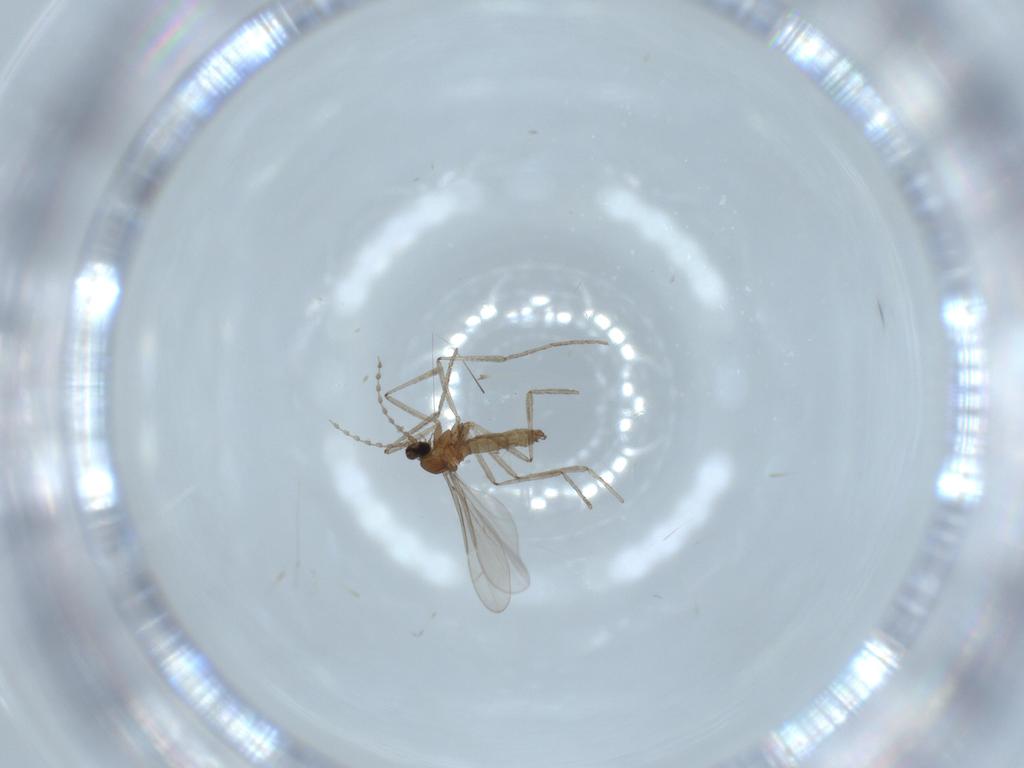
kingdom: Animalia
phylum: Arthropoda
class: Insecta
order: Diptera
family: Cecidomyiidae
